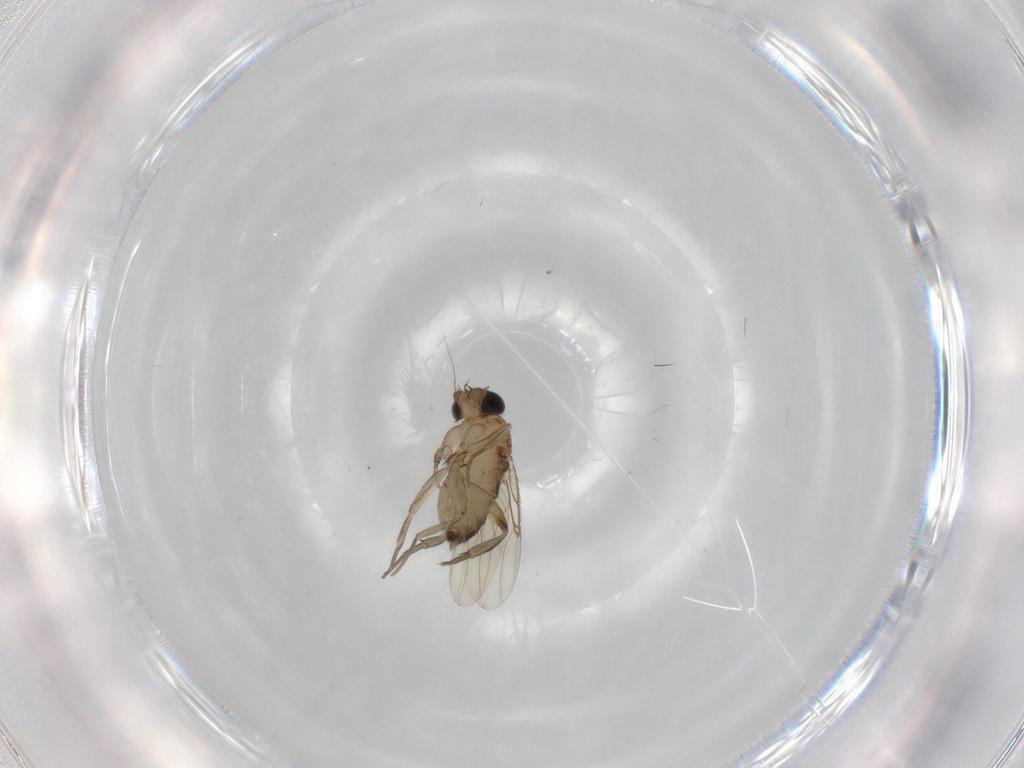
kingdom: Animalia
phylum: Arthropoda
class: Insecta
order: Diptera
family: Phoridae
